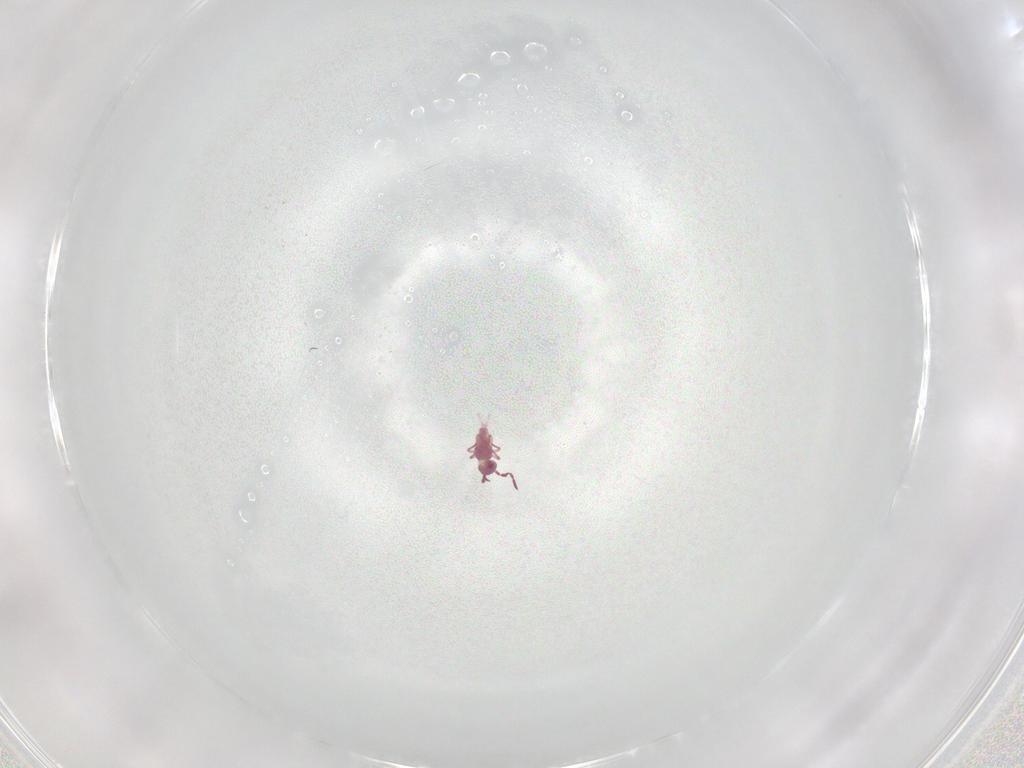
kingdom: Animalia
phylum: Arthropoda
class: Collembola
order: Symphypleona
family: Sminthurididae
